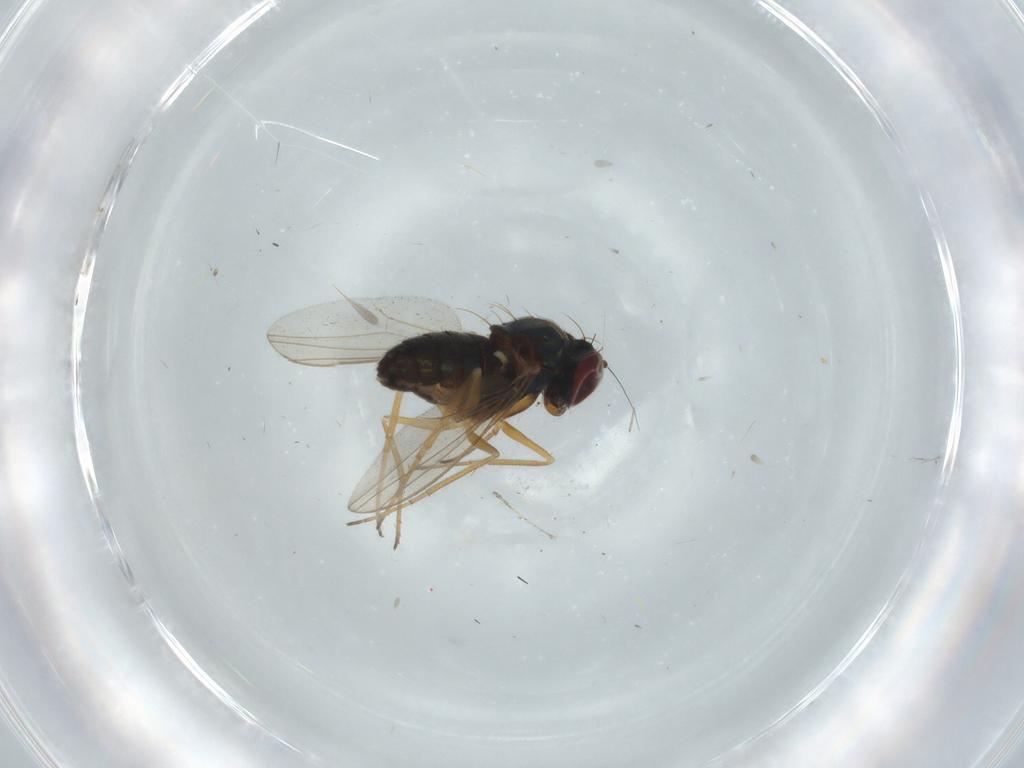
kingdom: Animalia
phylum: Arthropoda
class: Insecta
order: Diptera
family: Cecidomyiidae
